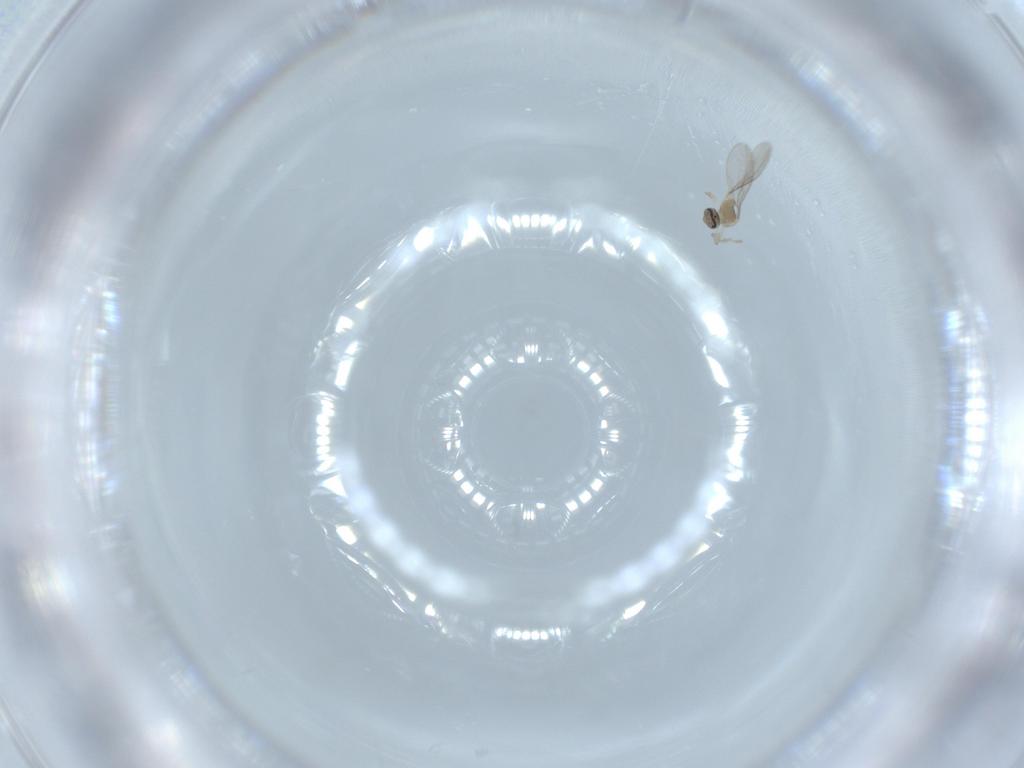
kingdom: Animalia
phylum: Arthropoda
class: Insecta
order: Diptera
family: Cecidomyiidae
